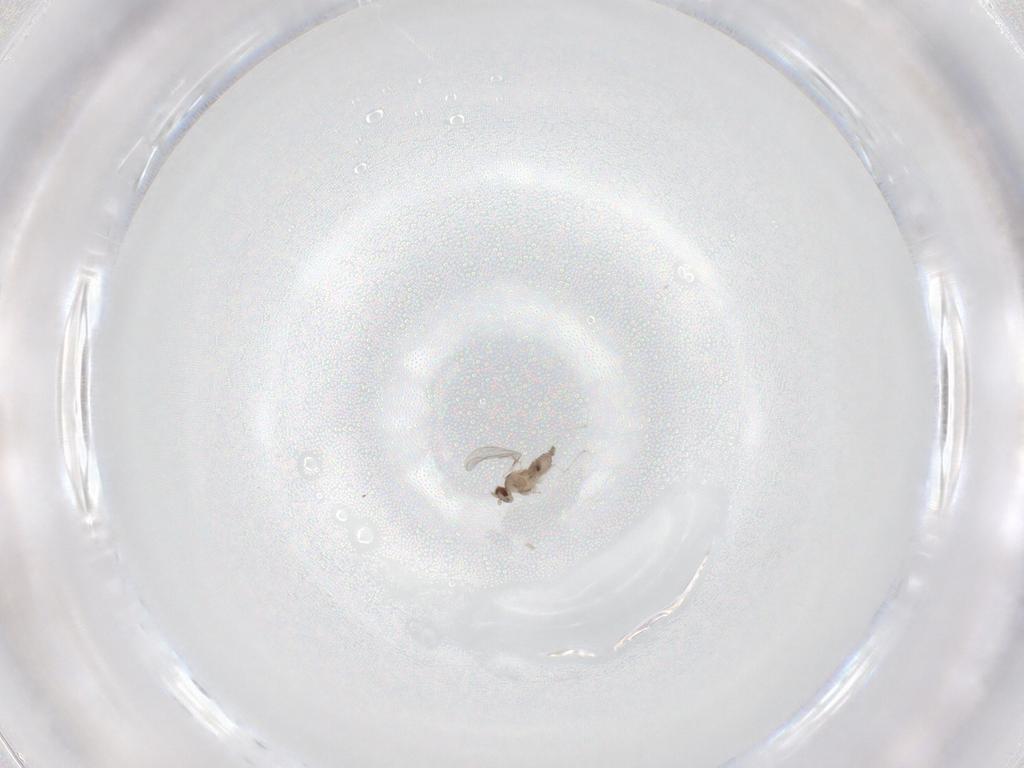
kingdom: Animalia
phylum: Arthropoda
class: Insecta
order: Diptera
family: Cecidomyiidae
